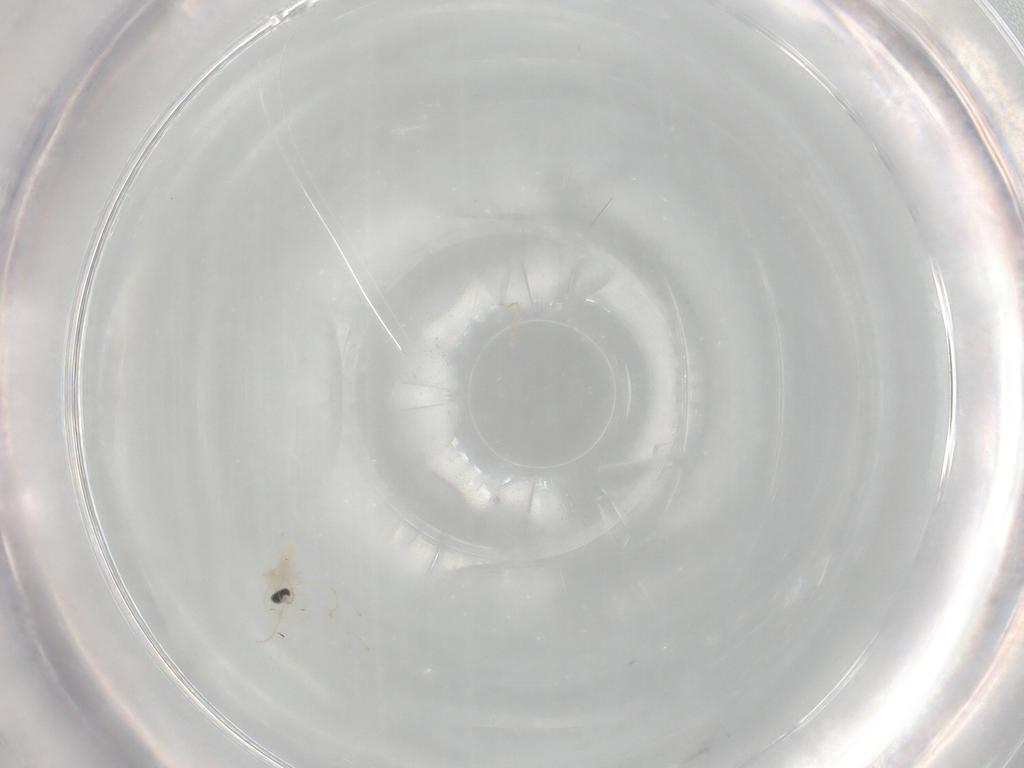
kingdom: Animalia
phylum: Arthropoda
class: Insecta
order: Diptera
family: Cecidomyiidae
